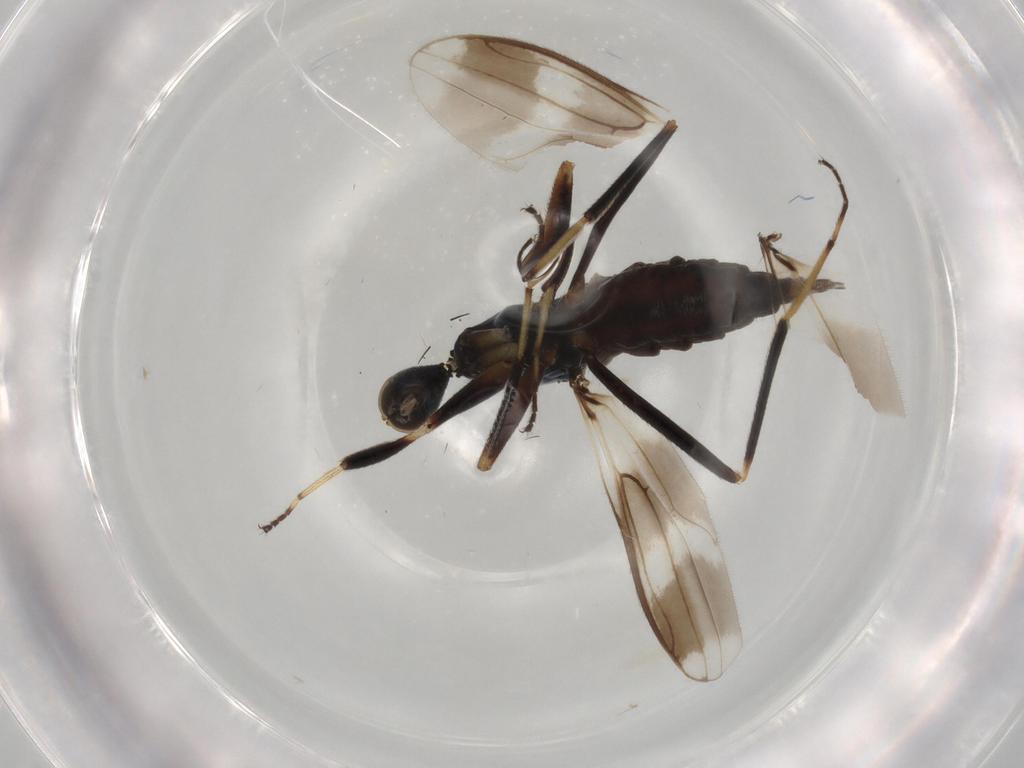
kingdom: Animalia
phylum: Arthropoda
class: Insecta
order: Diptera
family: Hybotidae
